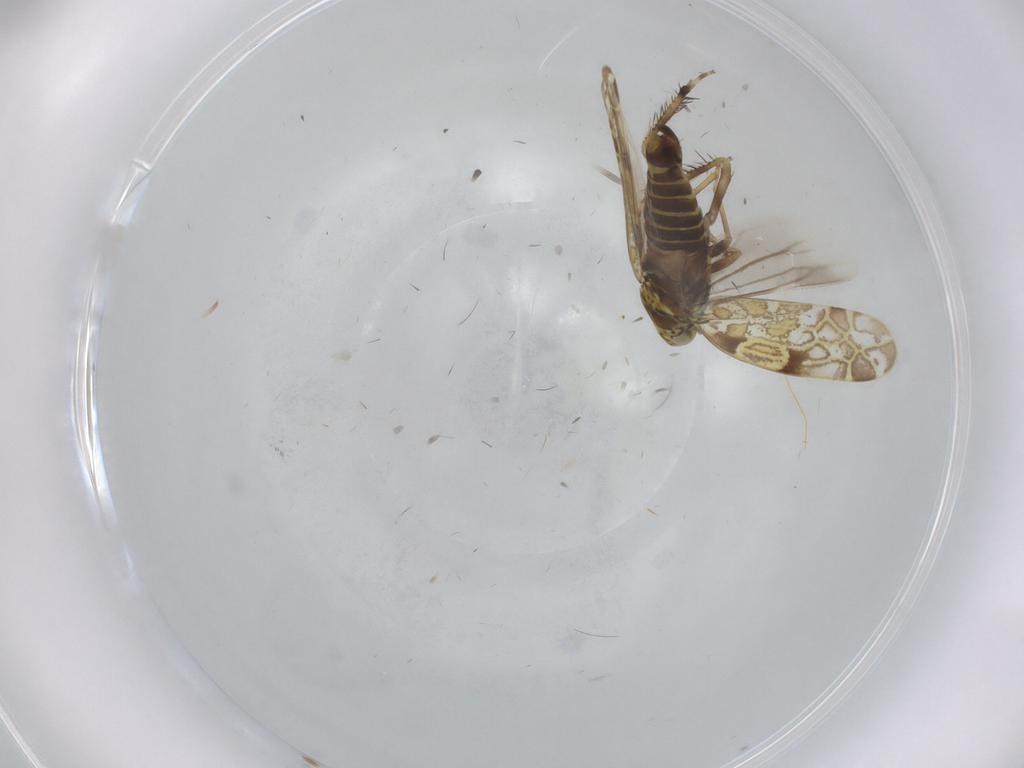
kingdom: Animalia
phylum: Arthropoda
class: Insecta
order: Hemiptera
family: Cicadellidae
